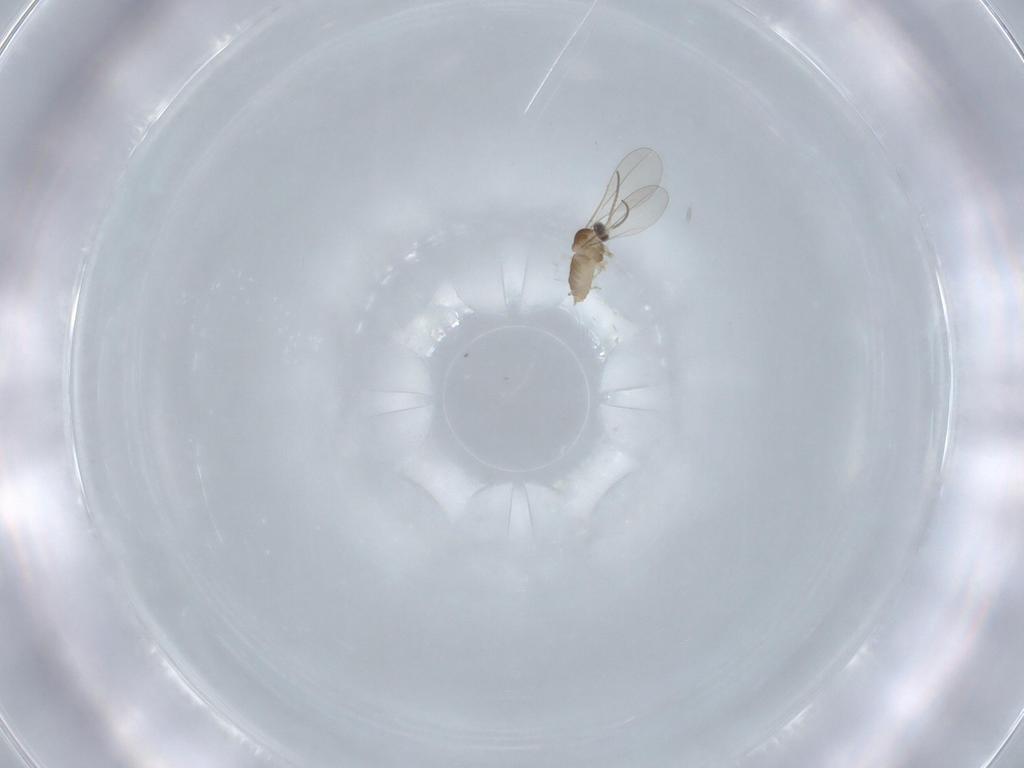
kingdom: Animalia
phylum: Arthropoda
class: Insecta
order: Diptera
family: Cecidomyiidae
